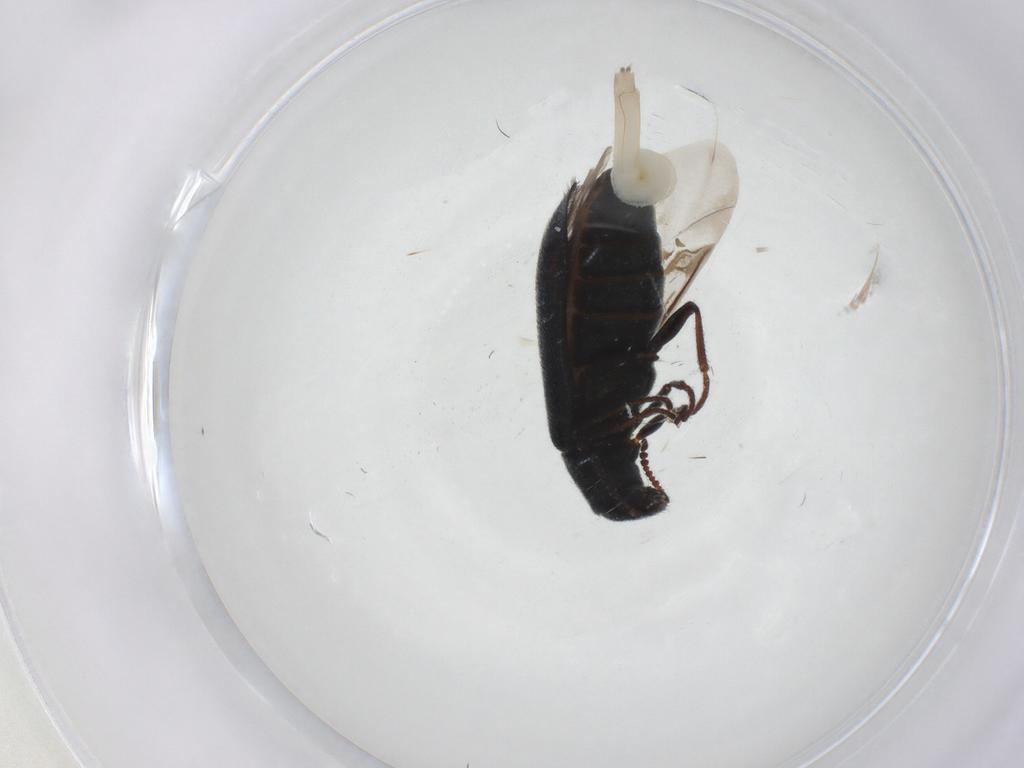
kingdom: Animalia
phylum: Arthropoda
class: Insecta
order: Coleoptera
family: Melyridae
